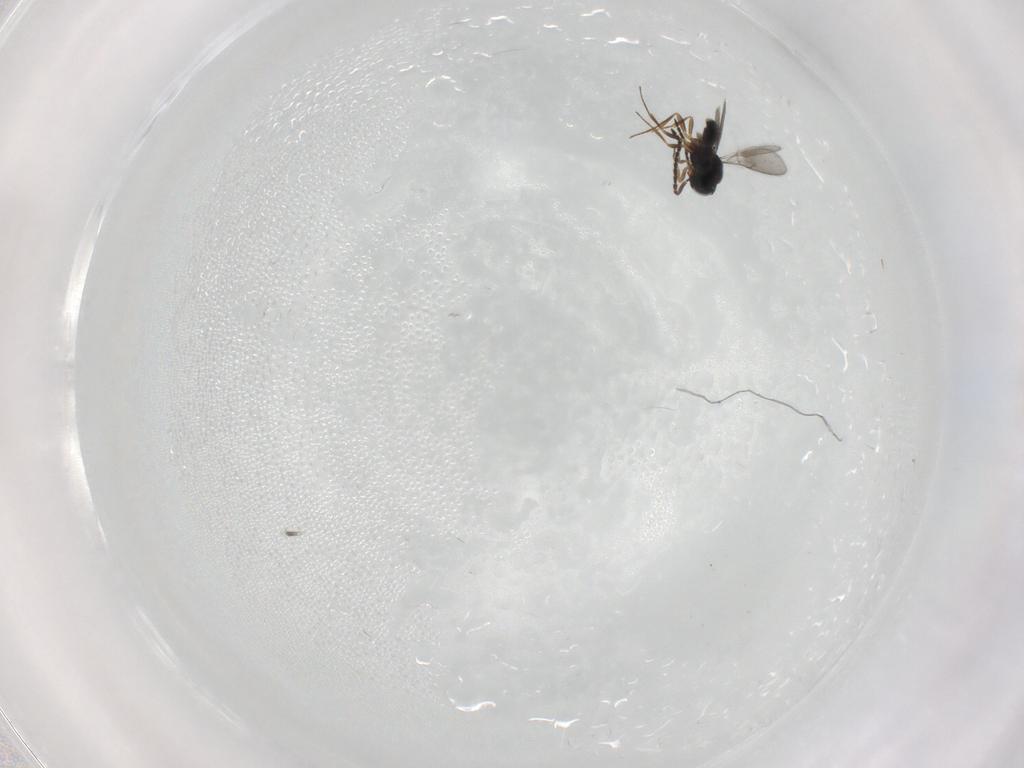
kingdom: Animalia
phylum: Arthropoda
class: Insecta
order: Hymenoptera
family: Scelionidae
